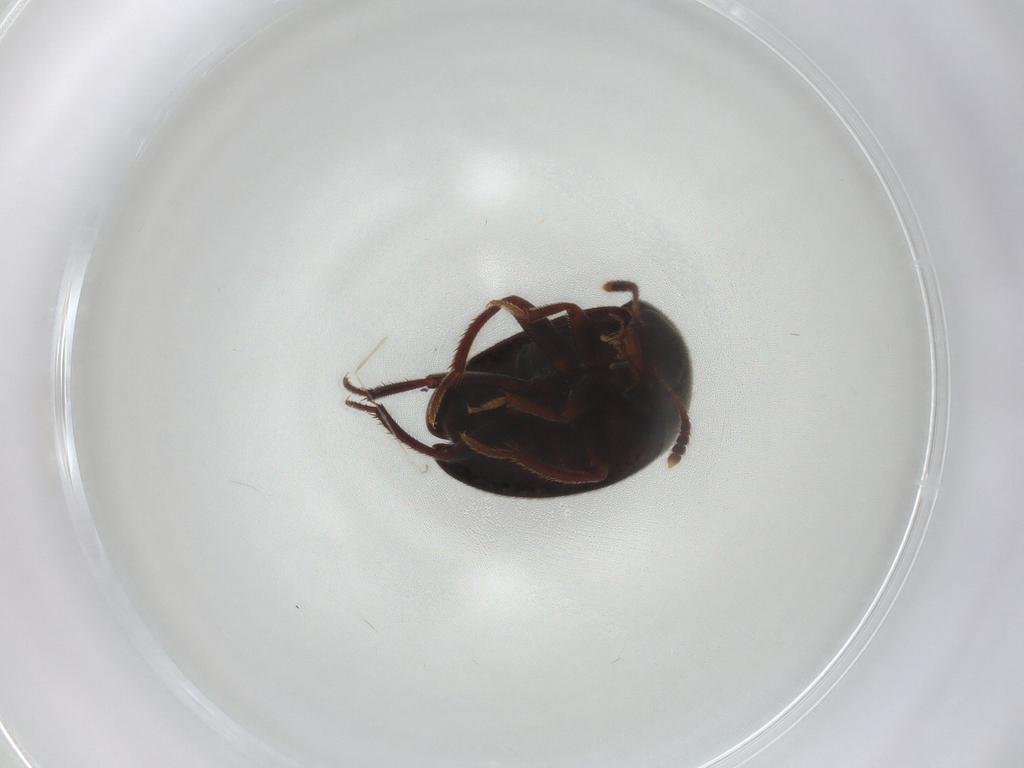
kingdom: Animalia
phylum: Arthropoda
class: Insecta
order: Coleoptera
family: Leiodidae
